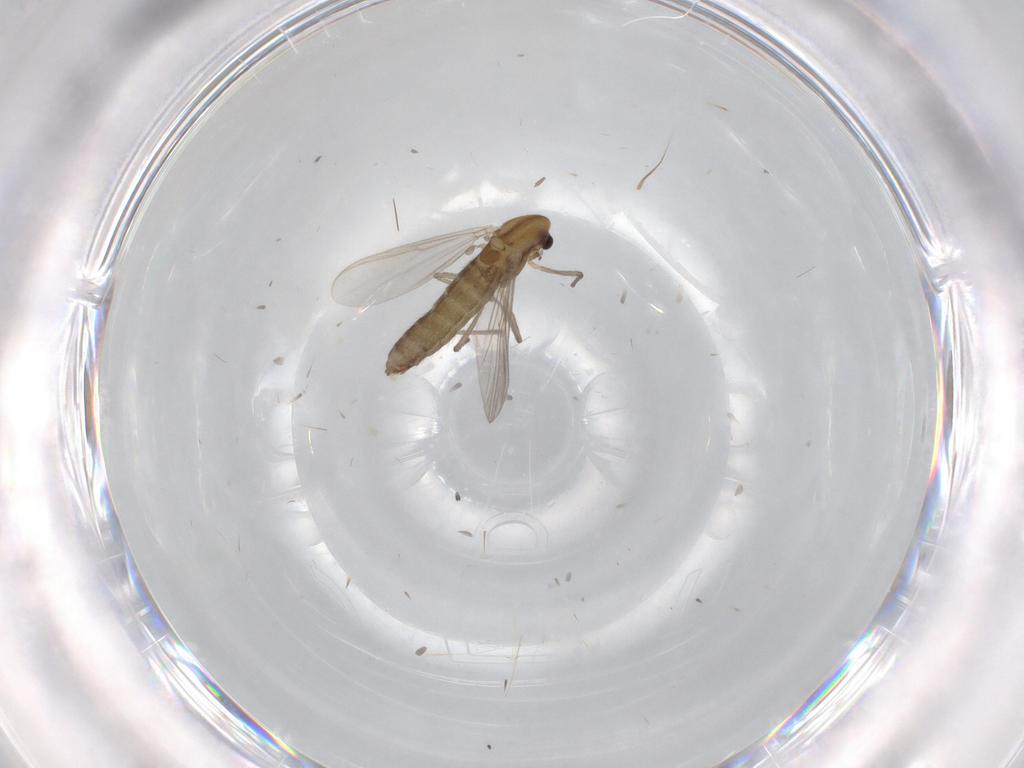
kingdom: Animalia
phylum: Arthropoda
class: Insecta
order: Diptera
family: Chironomidae
